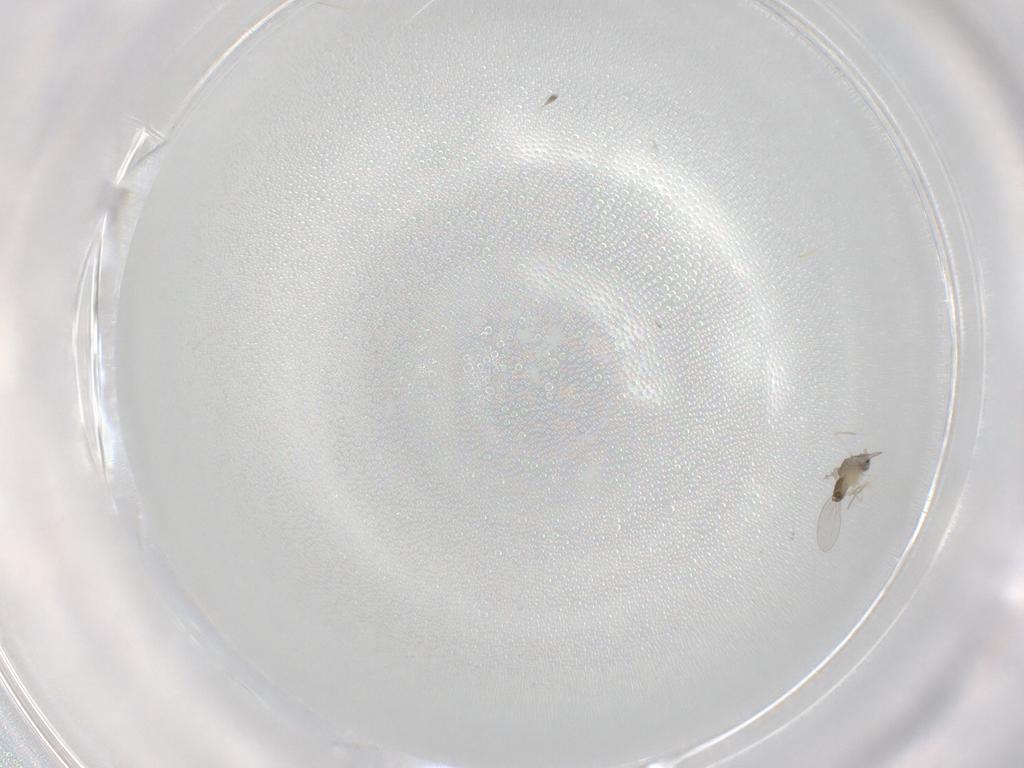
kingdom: Animalia
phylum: Arthropoda
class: Insecta
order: Diptera
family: Cecidomyiidae
